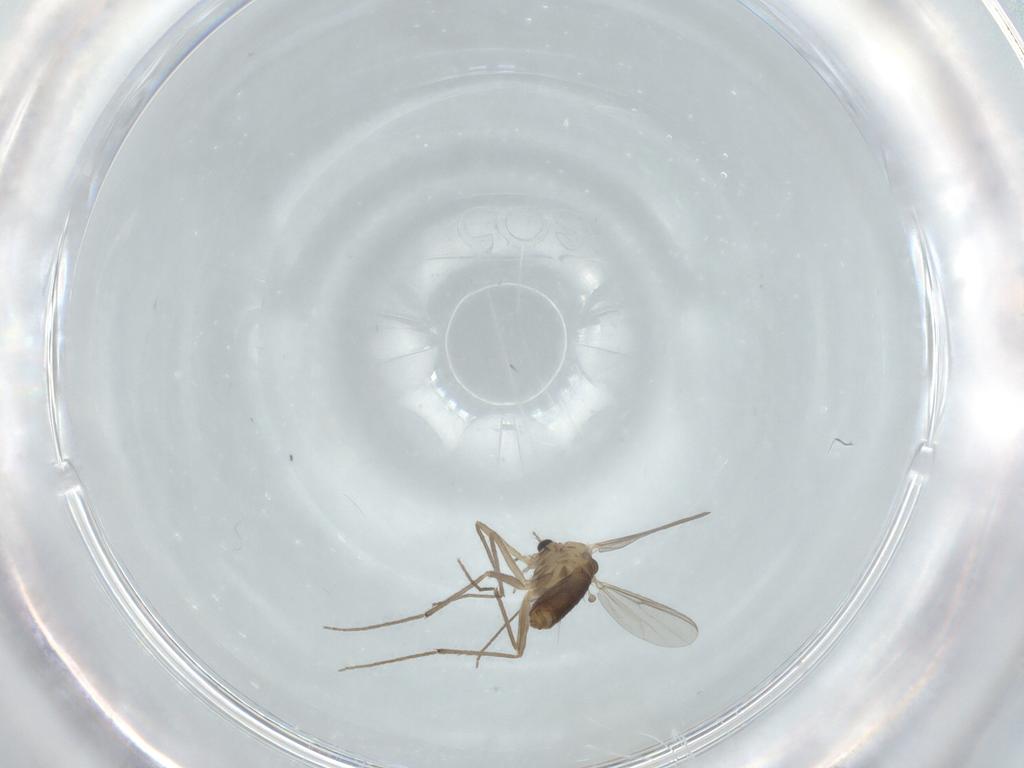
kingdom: Animalia
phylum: Arthropoda
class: Insecta
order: Diptera
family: Chironomidae
